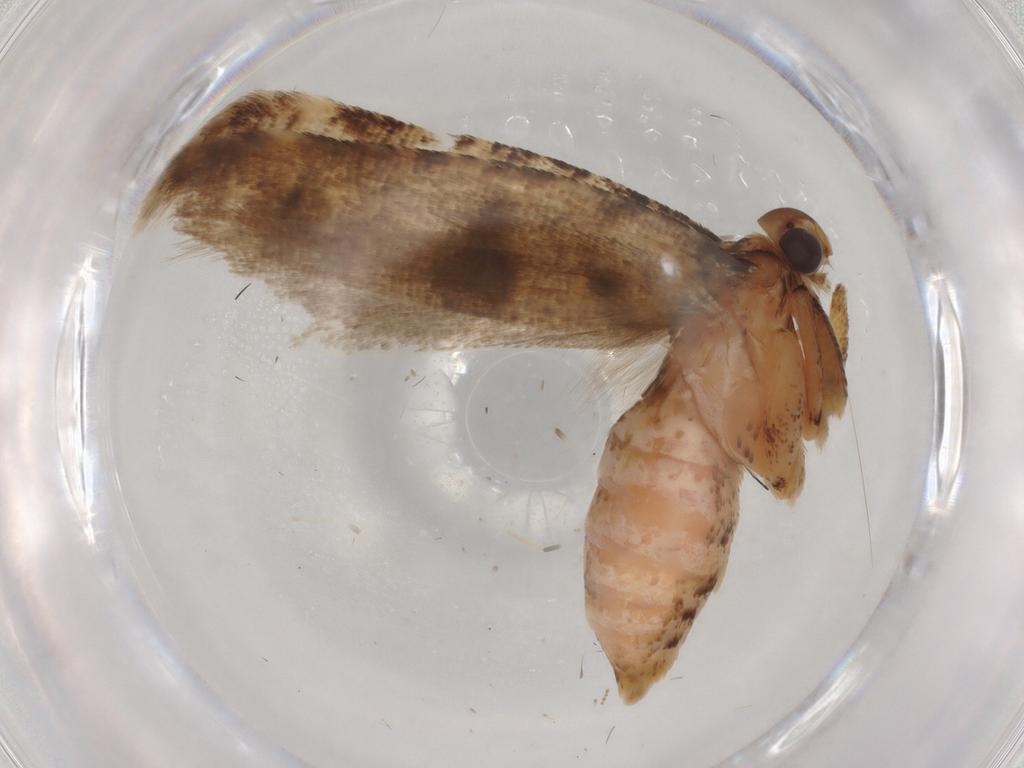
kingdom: Animalia
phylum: Arthropoda
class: Insecta
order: Lepidoptera
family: Gelechiidae
